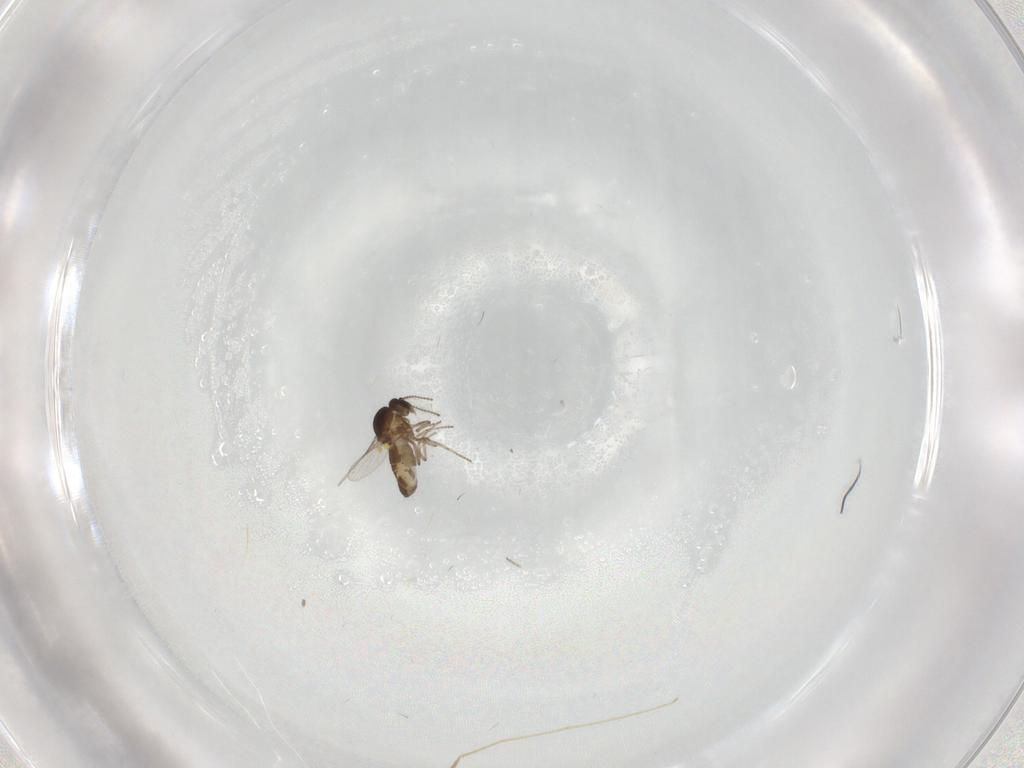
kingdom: Animalia
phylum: Arthropoda
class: Insecta
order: Diptera
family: Ceratopogonidae
